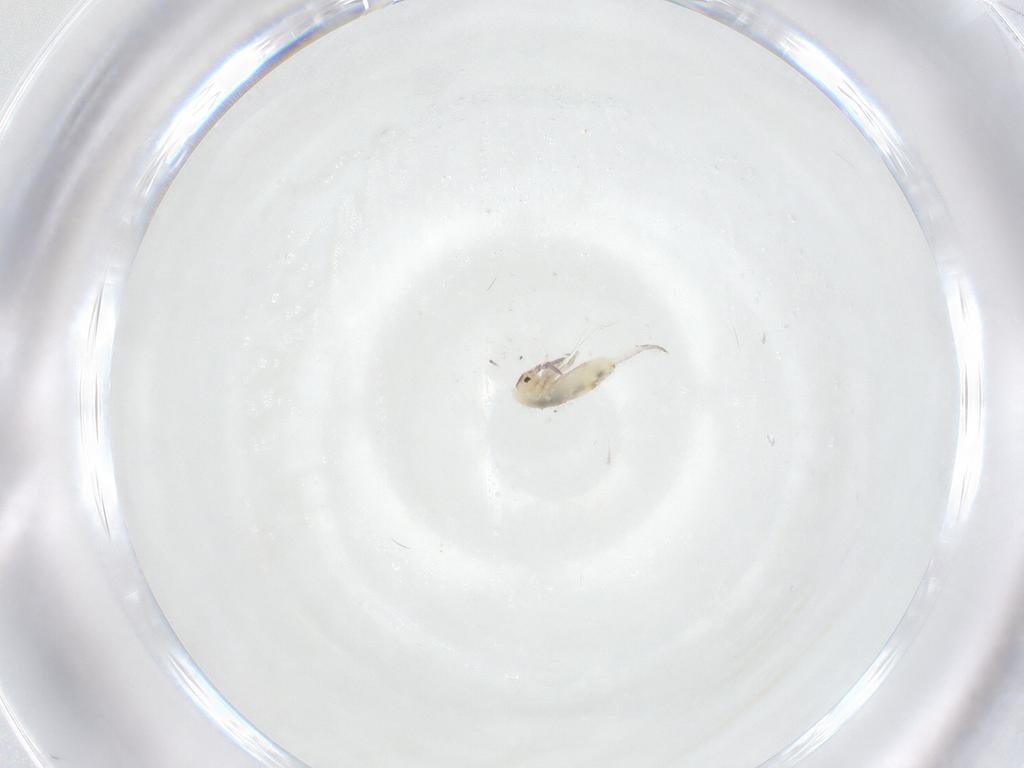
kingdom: Animalia
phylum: Arthropoda
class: Collembola
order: Entomobryomorpha
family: Entomobryidae
